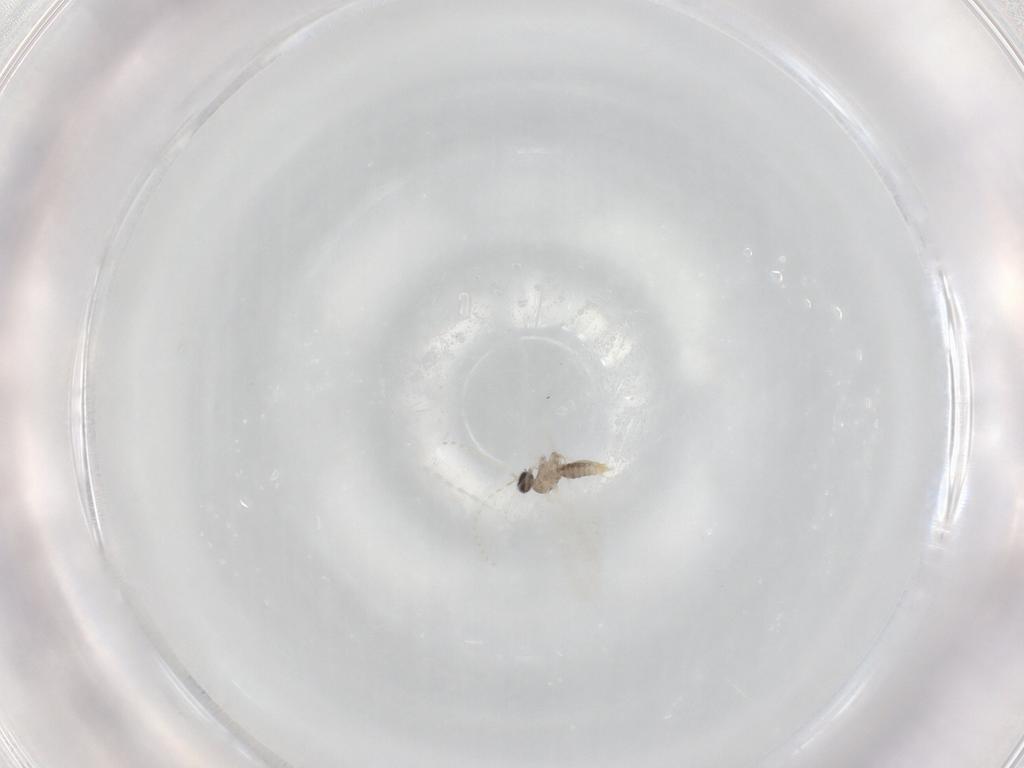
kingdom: Animalia
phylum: Arthropoda
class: Insecta
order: Diptera
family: Cecidomyiidae
